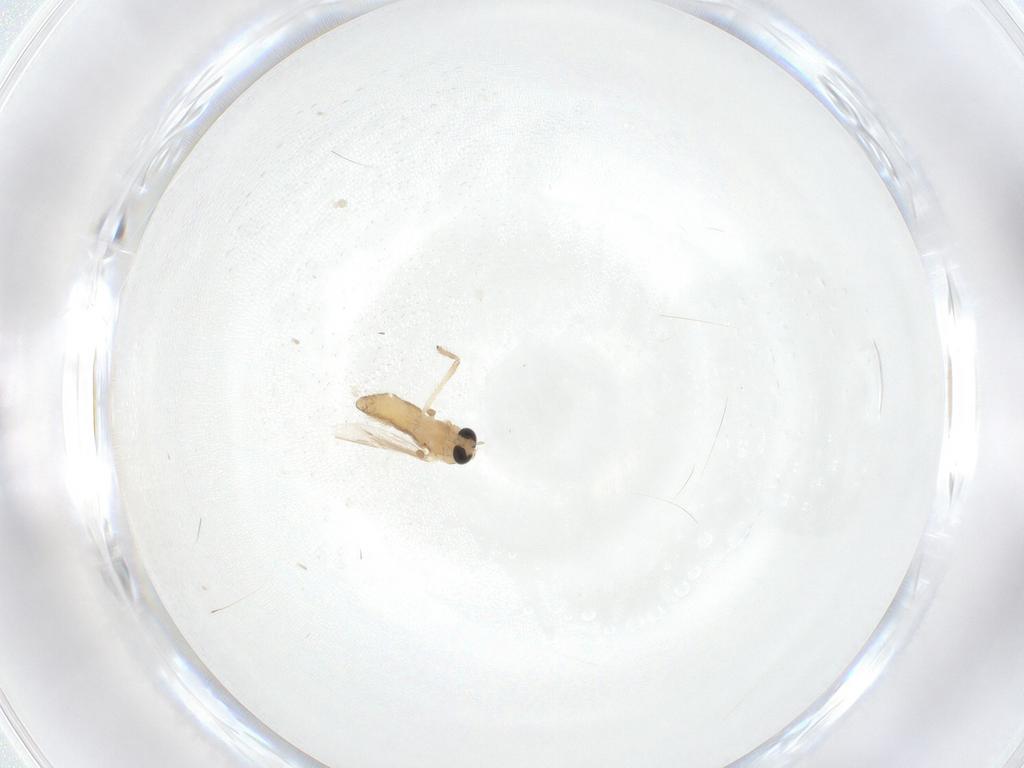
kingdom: Animalia
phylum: Arthropoda
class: Insecta
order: Diptera
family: Chironomidae
